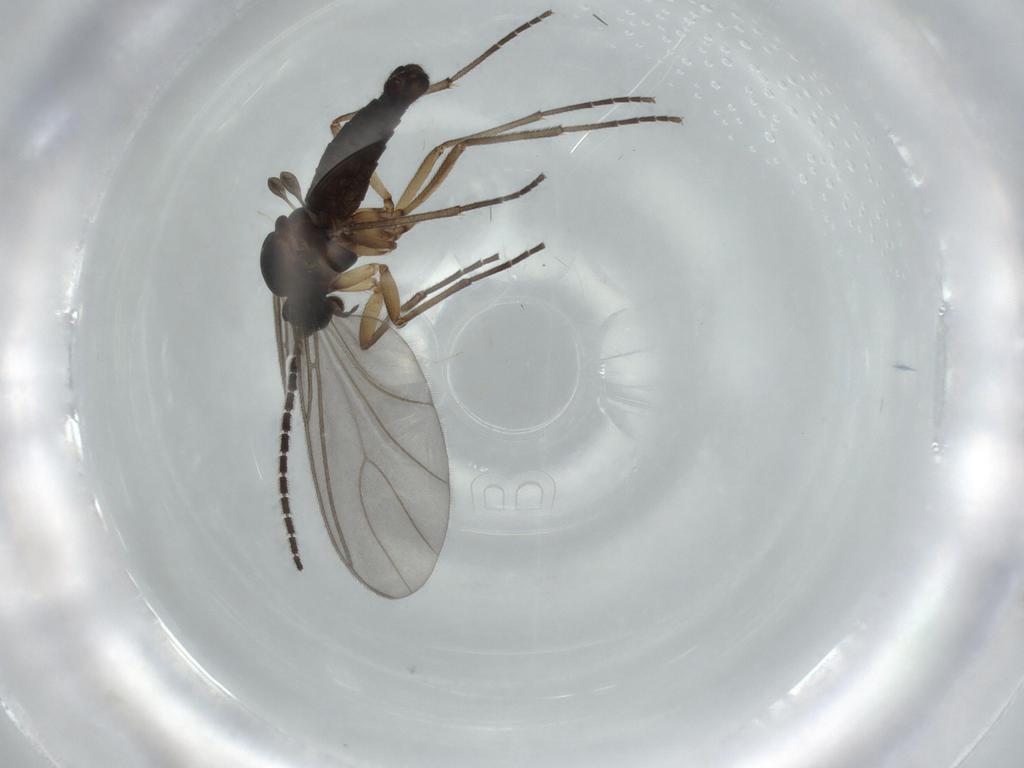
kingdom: Animalia
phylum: Arthropoda
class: Insecta
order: Diptera
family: Sciaridae
